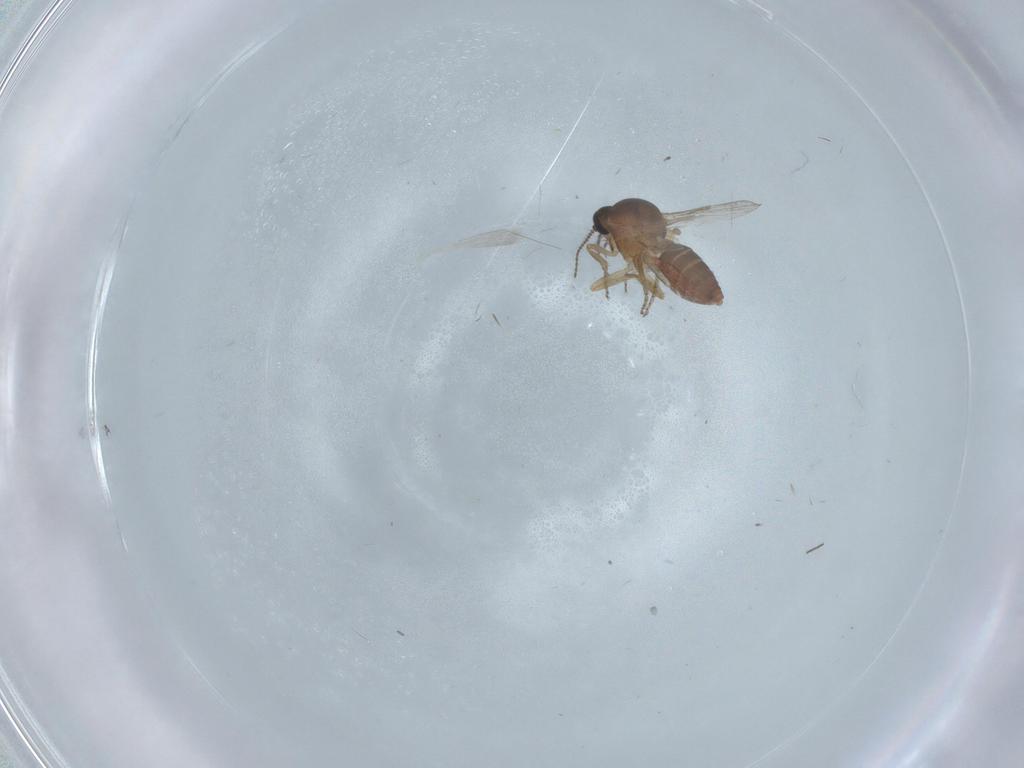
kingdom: Animalia
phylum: Arthropoda
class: Insecta
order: Diptera
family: Ceratopogonidae
